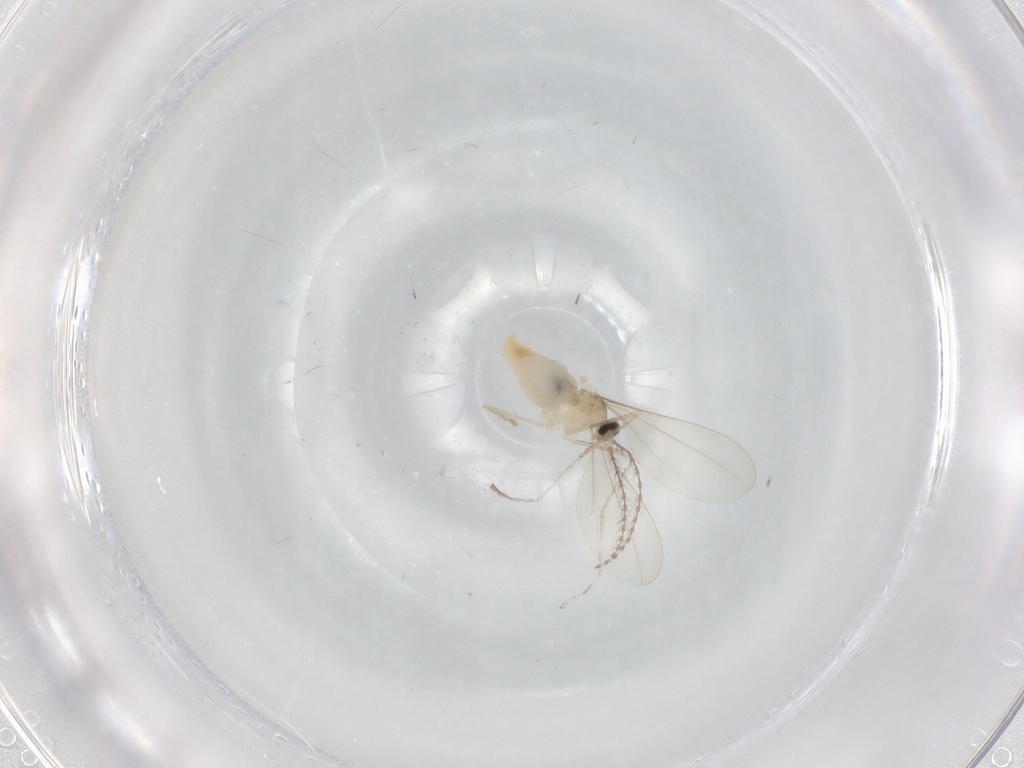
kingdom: Animalia
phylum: Arthropoda
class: Insecta
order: Diptera
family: Cecidomyiidae
